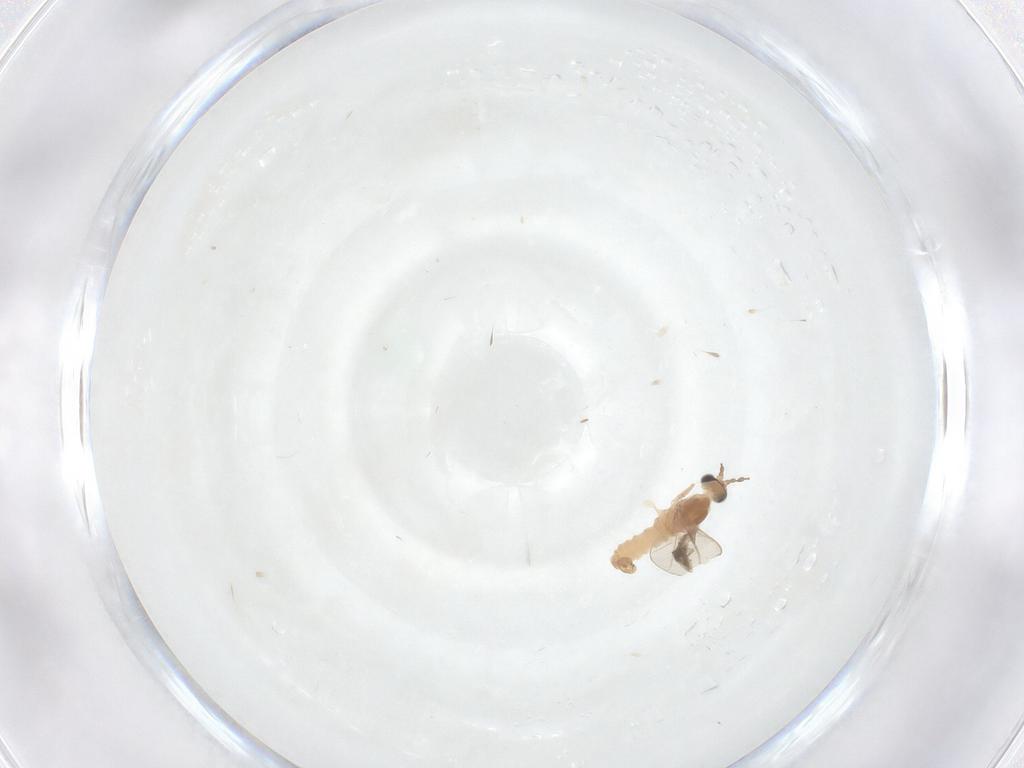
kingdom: Animalia
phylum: Arthropoda
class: Insecta
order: Diptera
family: Cecidomyiidae
